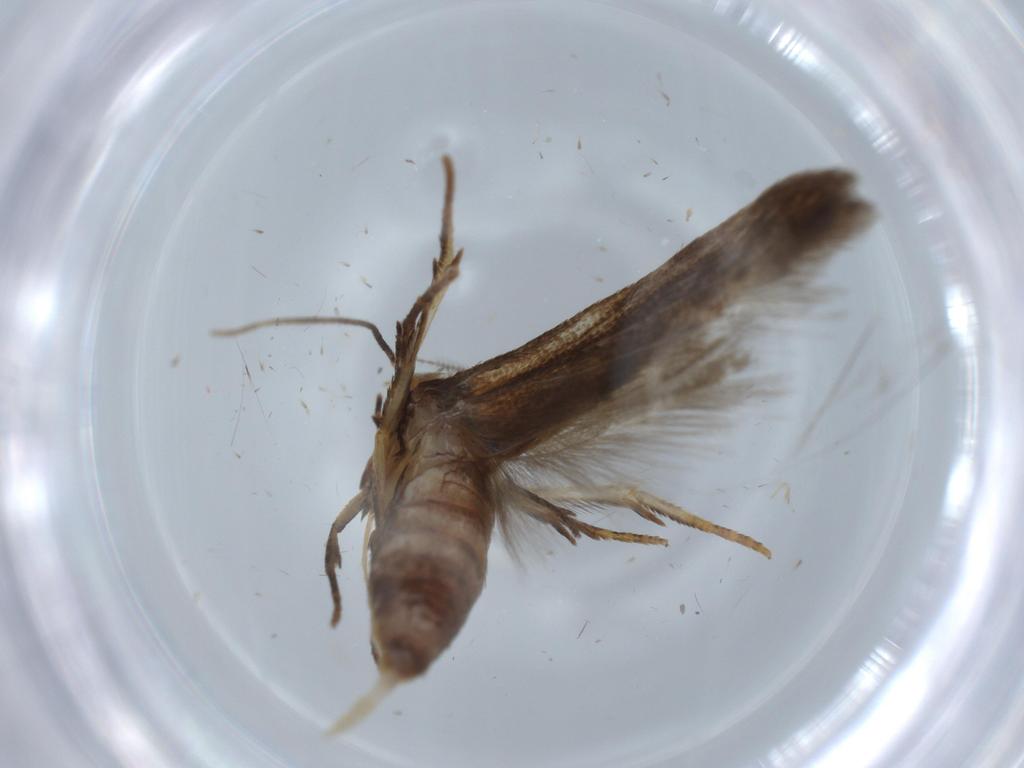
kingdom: Animalia
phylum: Arthropoda
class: Insecta
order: Lepidoptera
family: Blastobasidae
